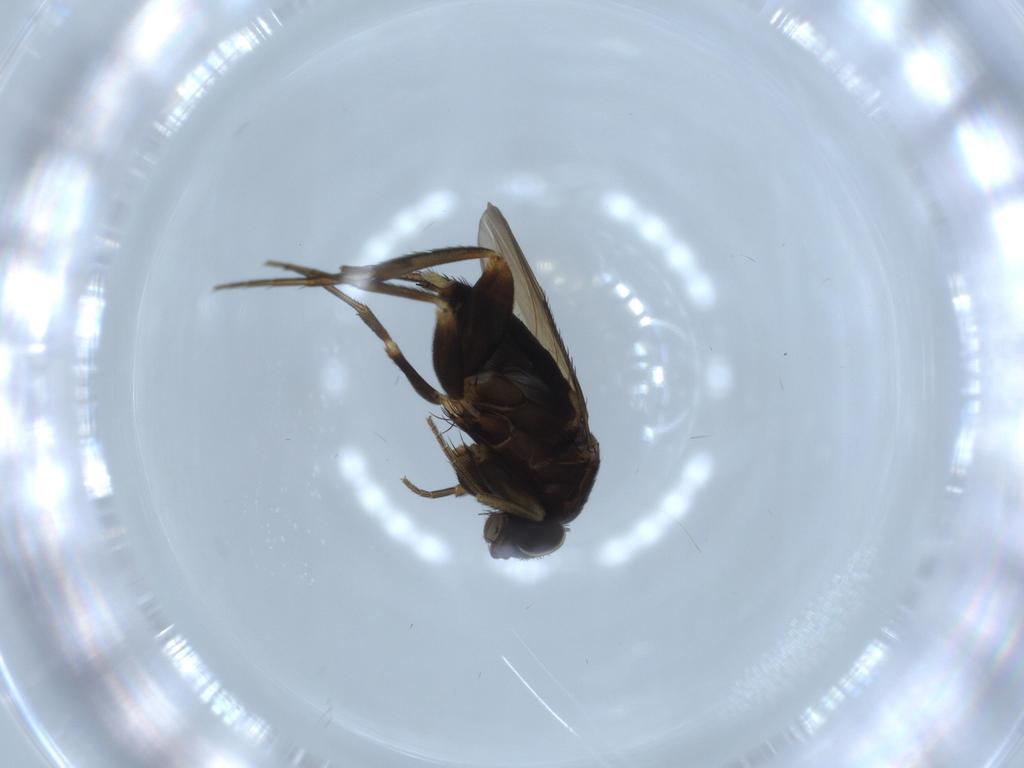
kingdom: Animalia
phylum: Arthropoda
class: Insecta
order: Diptera
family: Phoridae
